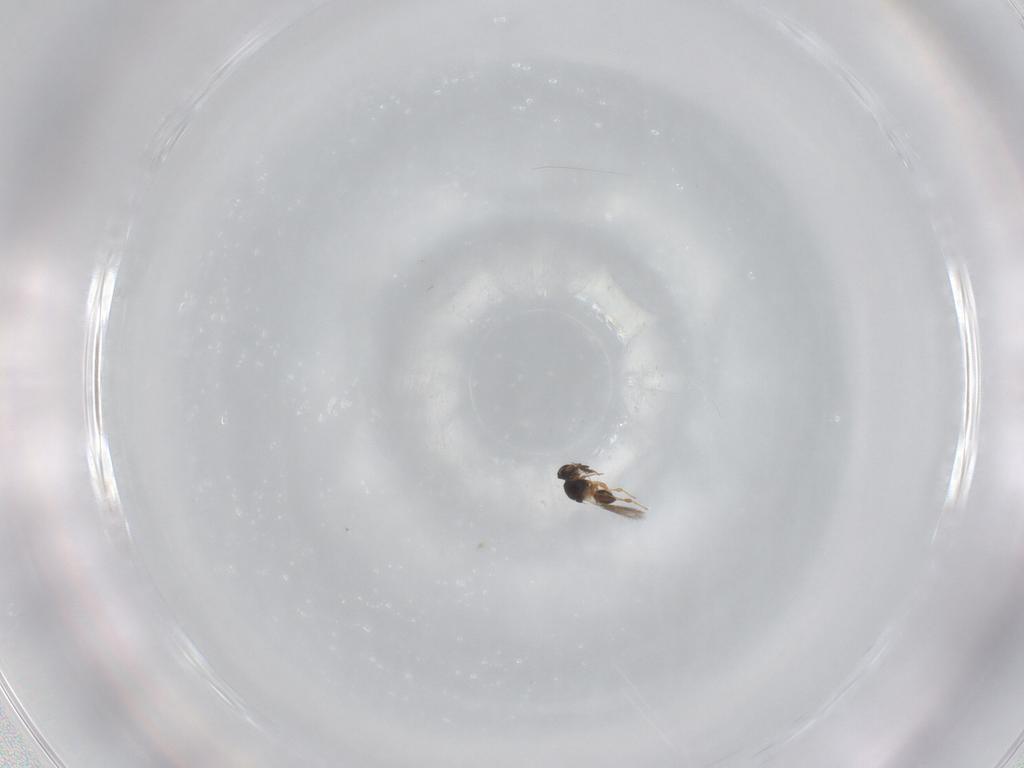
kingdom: Animalia
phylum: Arthropoda
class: Insecta
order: Hymenoptera
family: Platygastridae
